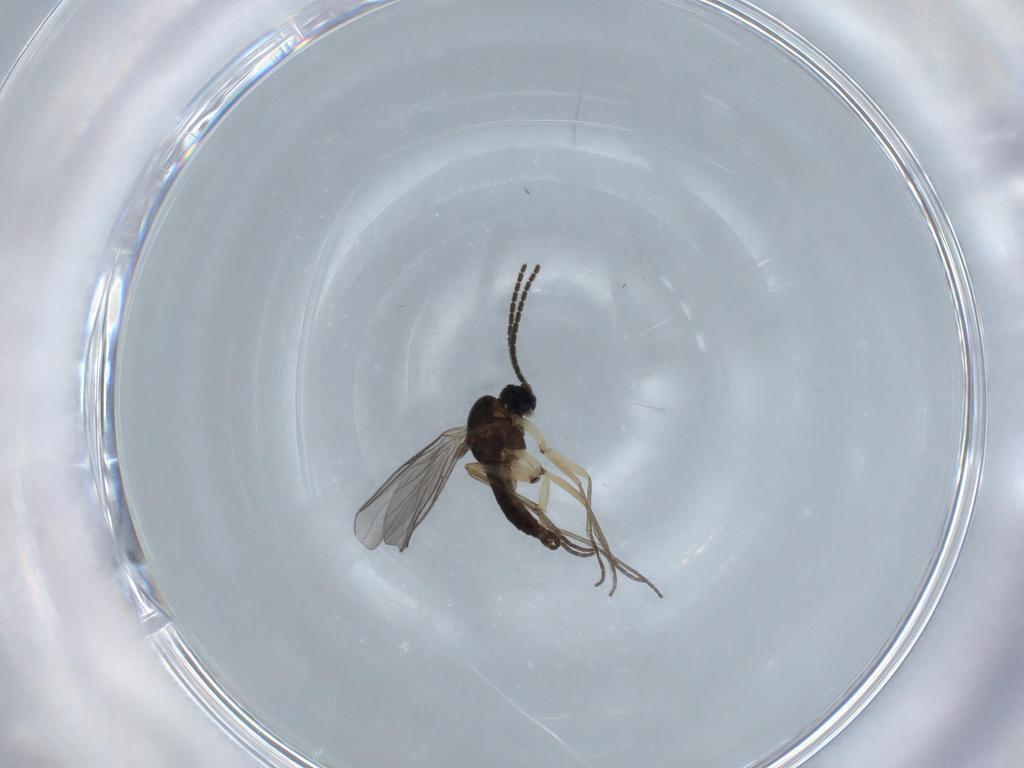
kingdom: Animalia
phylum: Arthropoda
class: Insecta
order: Diptera
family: Sciaridae
